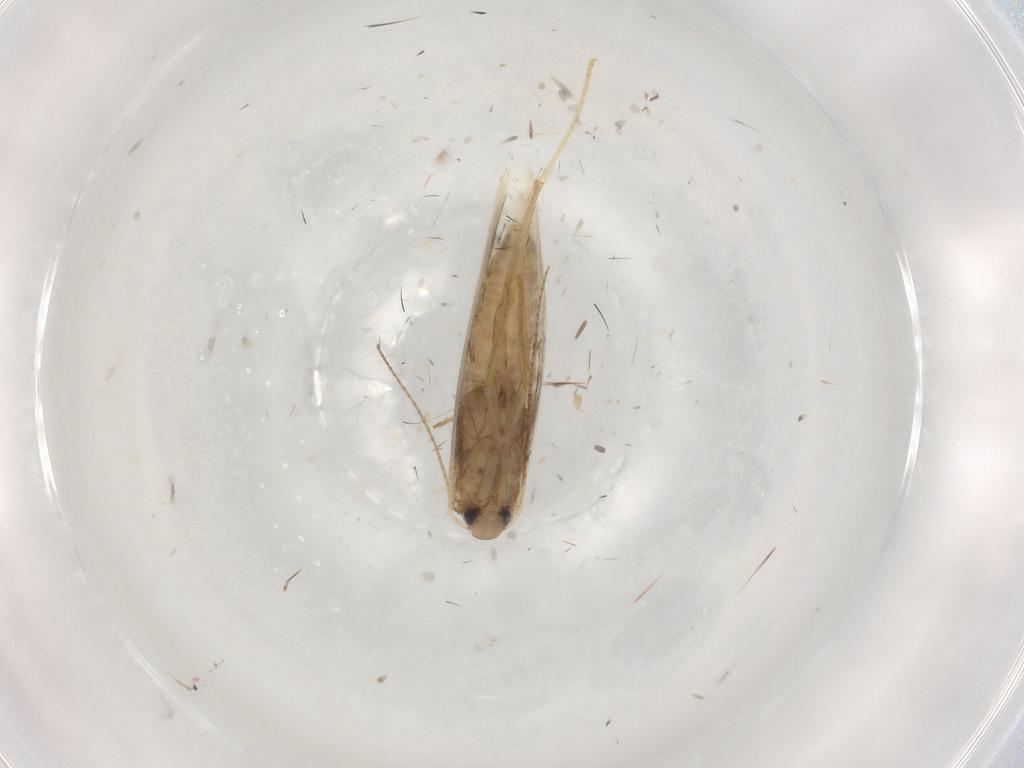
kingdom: Animalia
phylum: Arthropoda
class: Insecta
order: Lepidoptera
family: Gracillariidae
